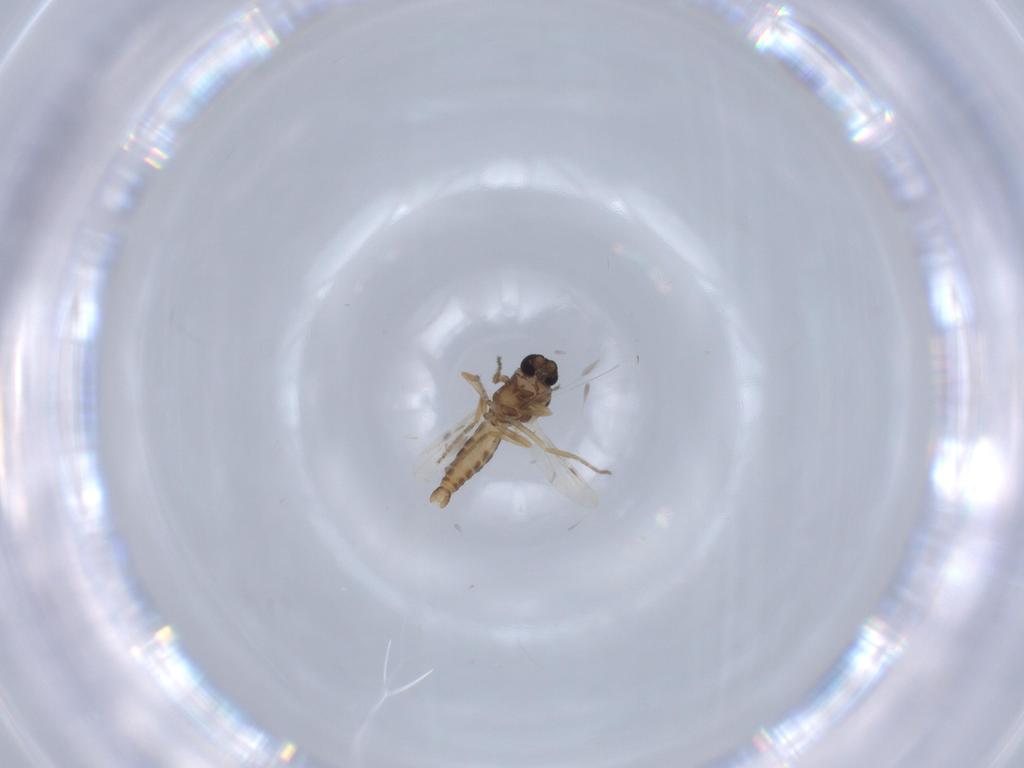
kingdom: Animalia
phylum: Arthropoda
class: Insecta
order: Diptera
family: Ceratopogonidae
